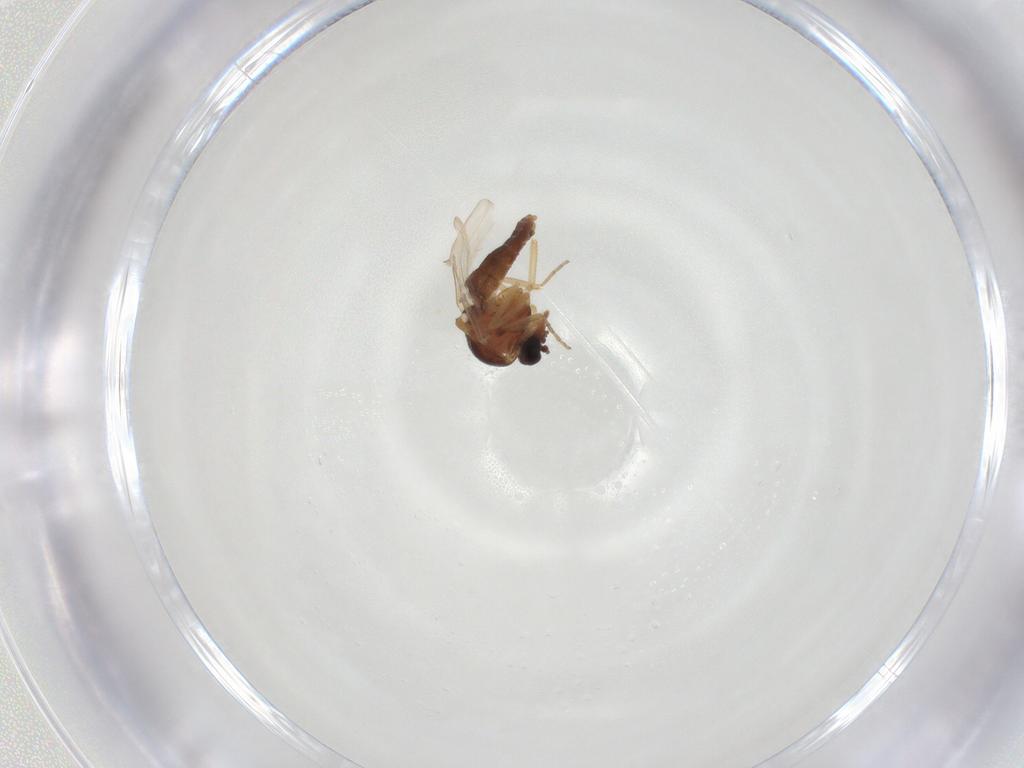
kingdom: Animalia
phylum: Arthropoda
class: Insecta
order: Diptera
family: Ceratopogonidae
